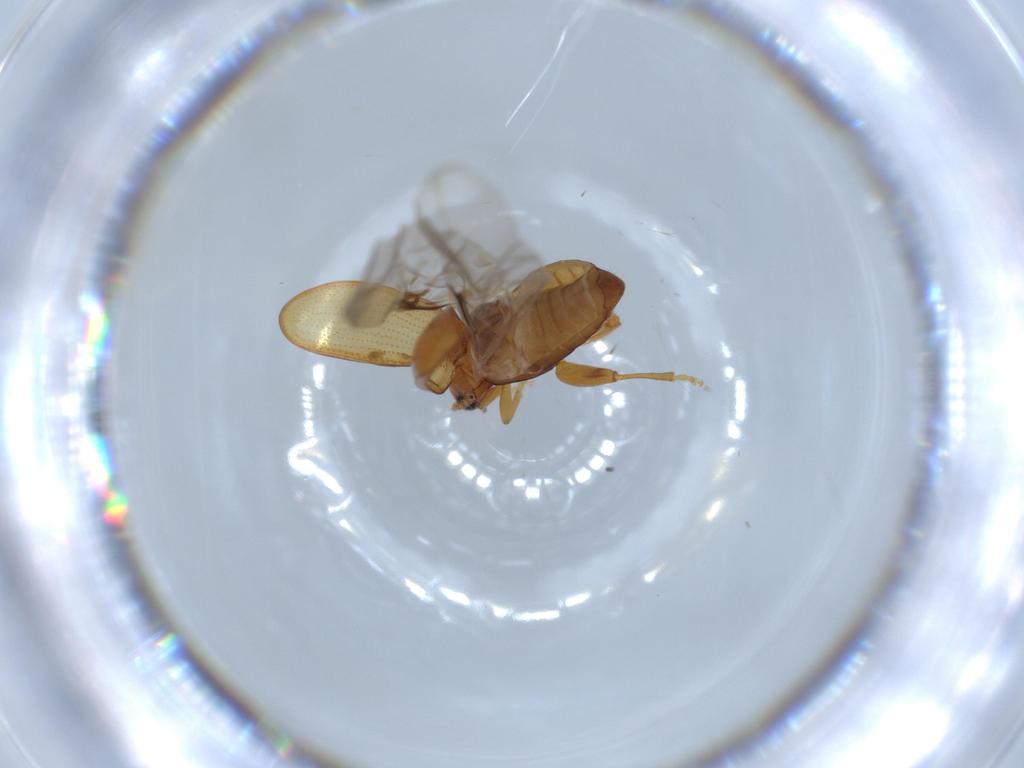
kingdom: Animalia
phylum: Arthropoda
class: Insecta
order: Coleoptera
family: Chrysomelidae
